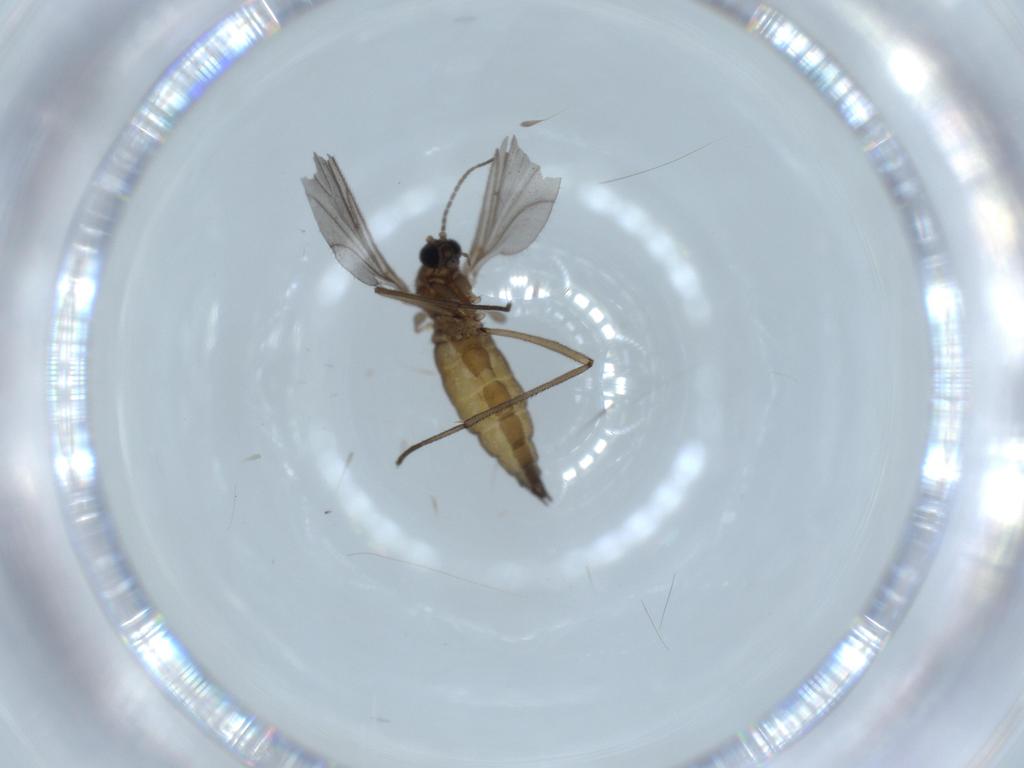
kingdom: Animalia
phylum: Arthropoda
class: Insecta
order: Diptera
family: Sciaridae
